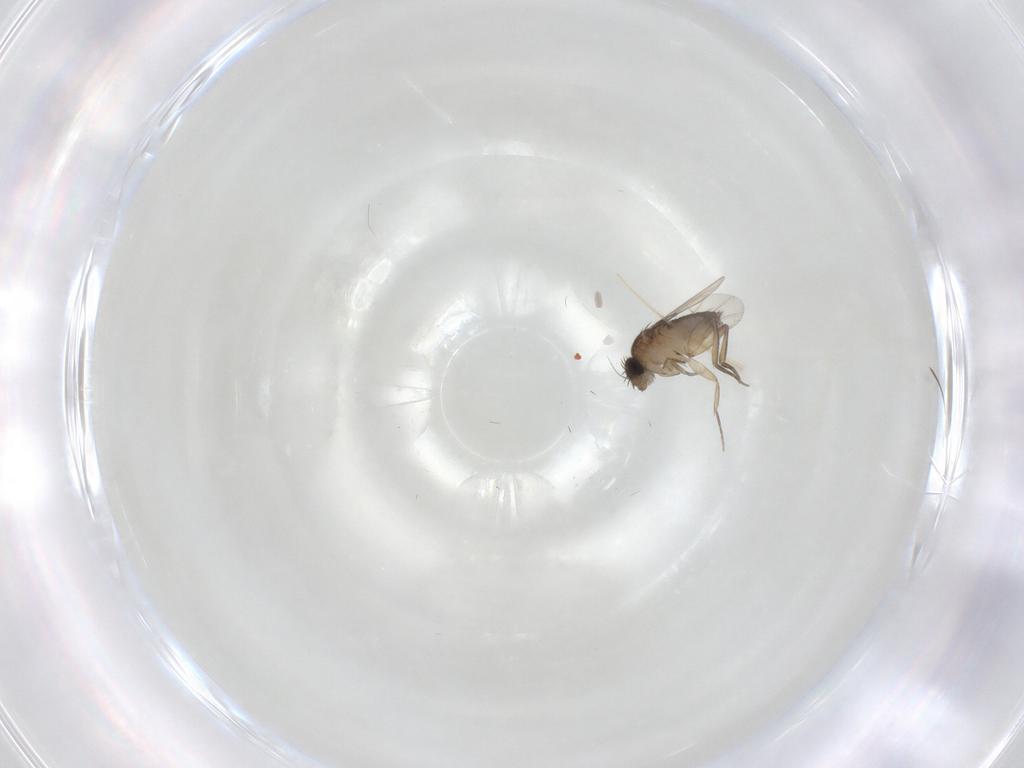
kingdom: Animalia
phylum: Arthropoda
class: Insecta
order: Diptera
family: Phoridae
